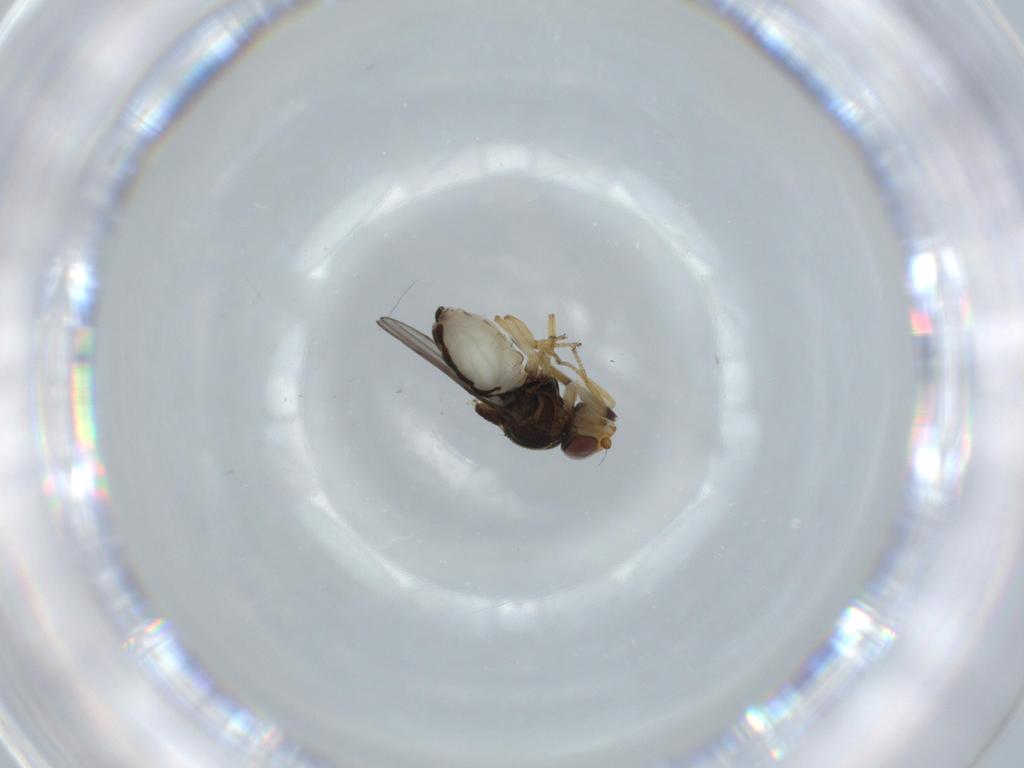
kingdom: Animalia
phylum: Arthropoda
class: Insecta
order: Diptera
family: Chloropidae
